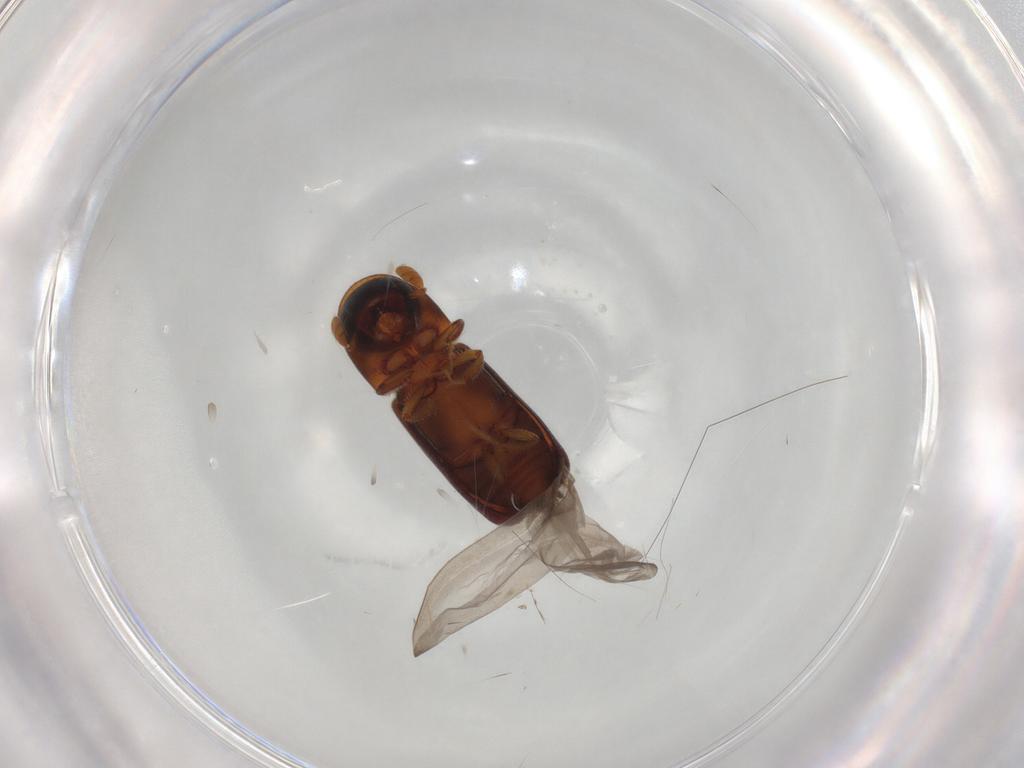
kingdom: Animalia
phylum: Arthropoda
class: Insecta
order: Coleoptera
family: Curculionidae
